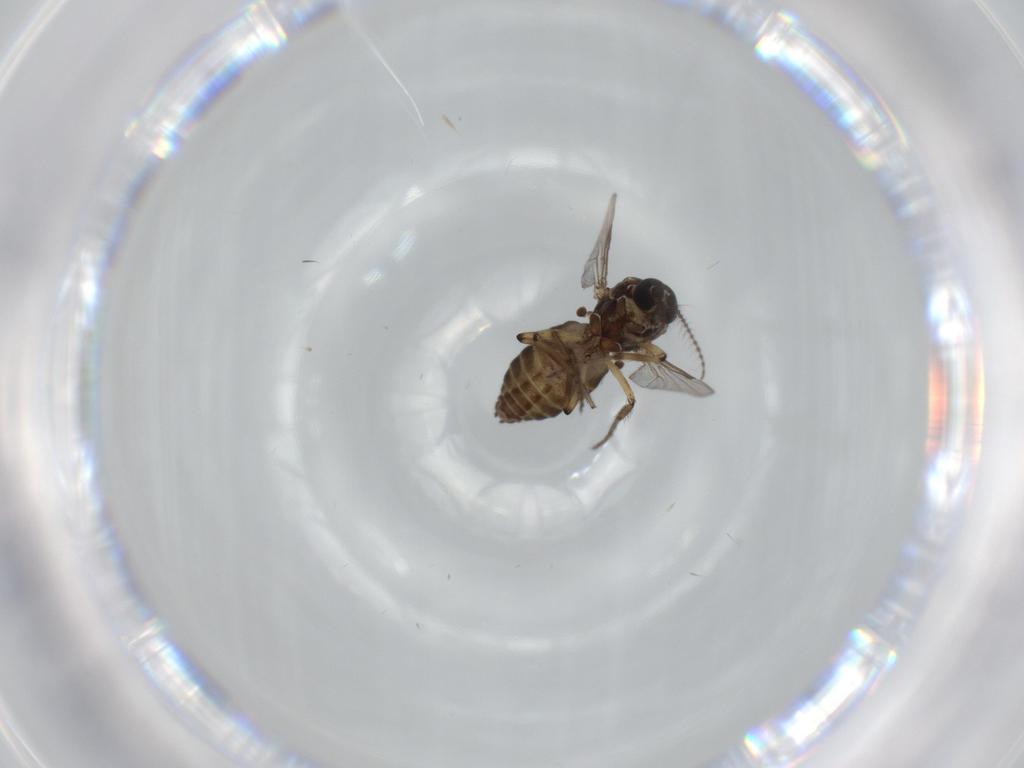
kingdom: Animalia
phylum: Arthropoda
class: Insecta
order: Diptera
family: Ceratopogonidae
